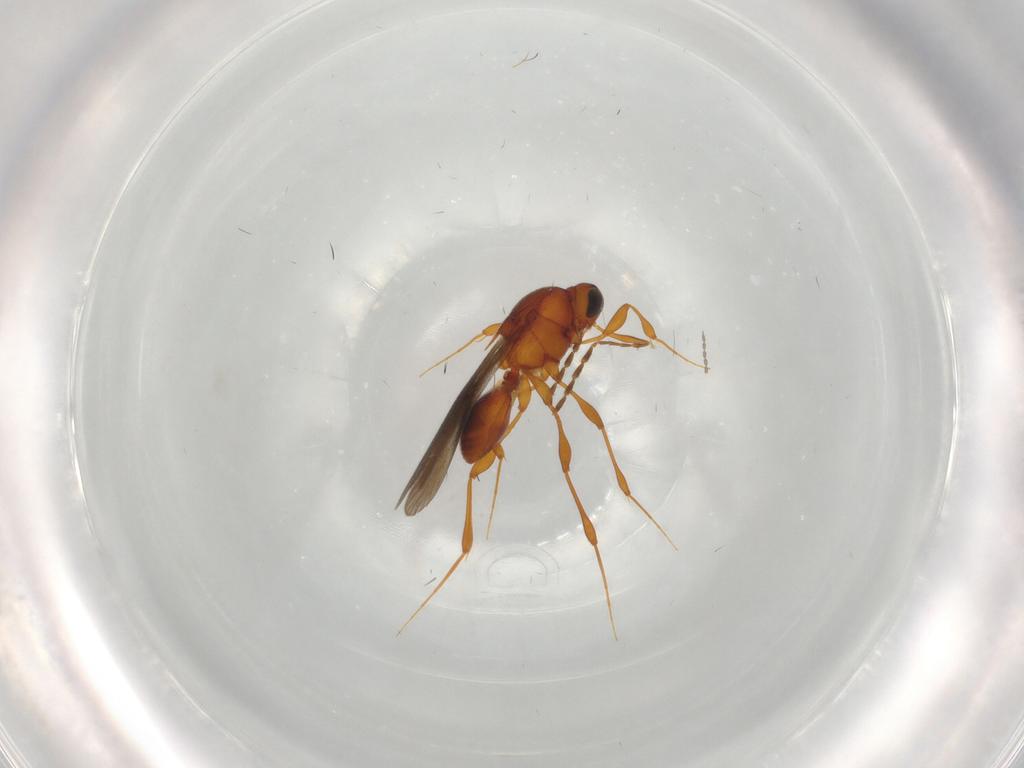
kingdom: Animalia
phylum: Arthropoda
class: Insecta
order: Hymenoptera
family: Platygastridae
